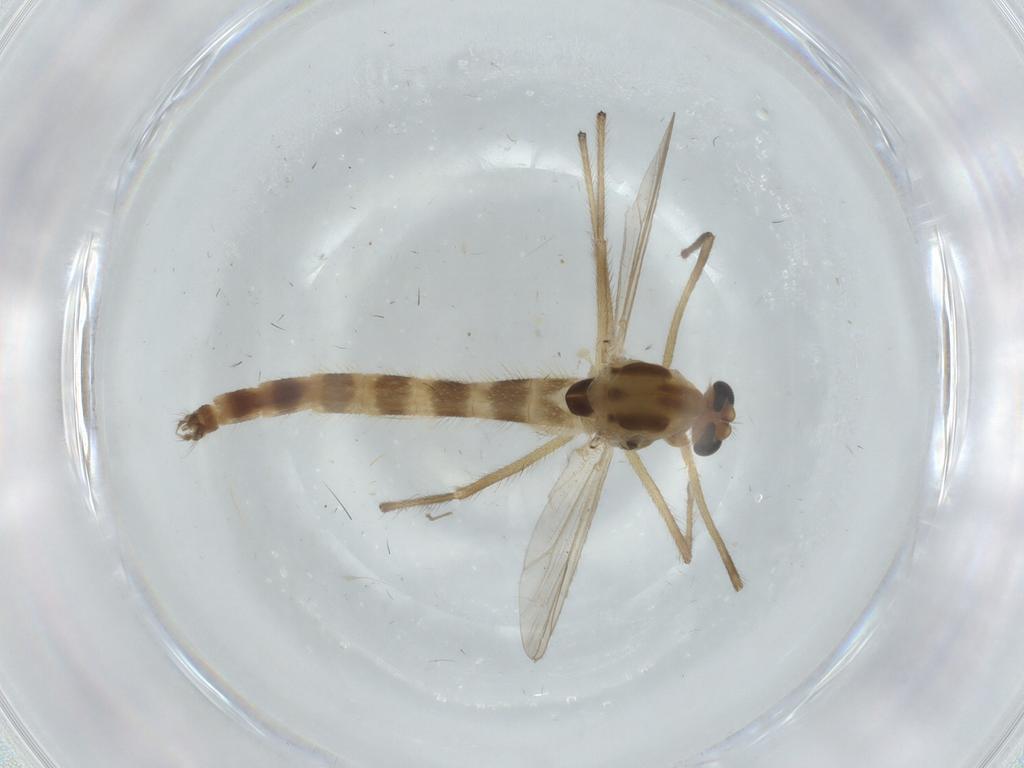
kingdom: Animalia
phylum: Arthropoda
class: Insecta
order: Diptera
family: Chironomidae
